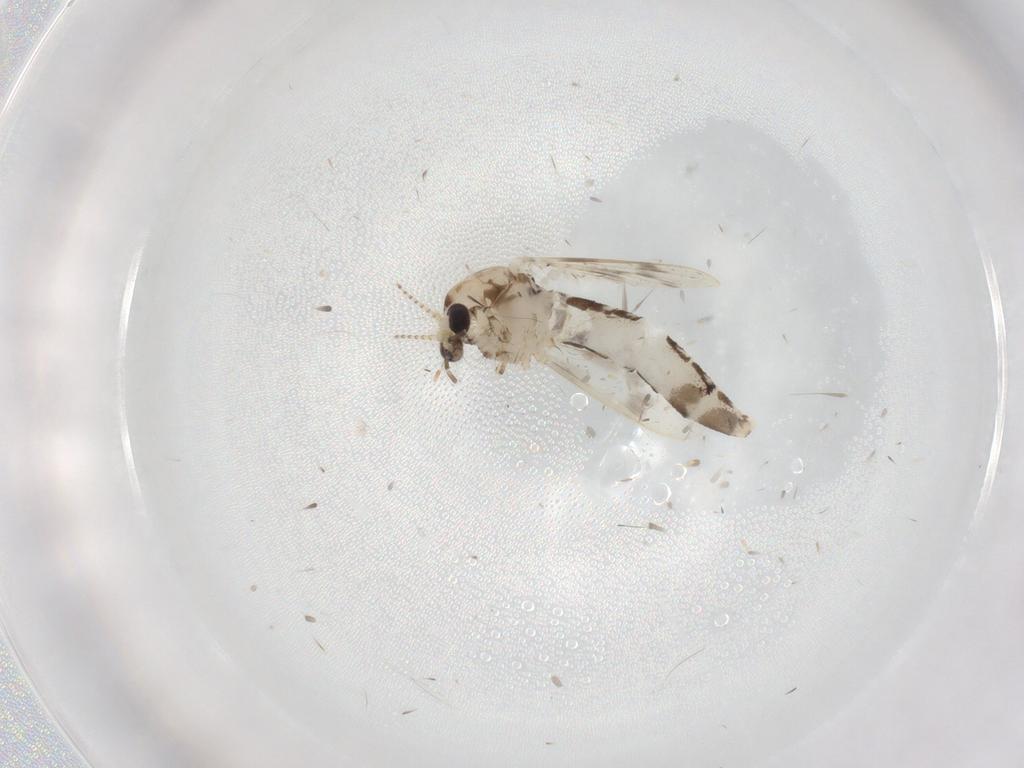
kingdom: Animalia
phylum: Arthropoda
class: Insecta
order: Diptera
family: Corethrellidae
